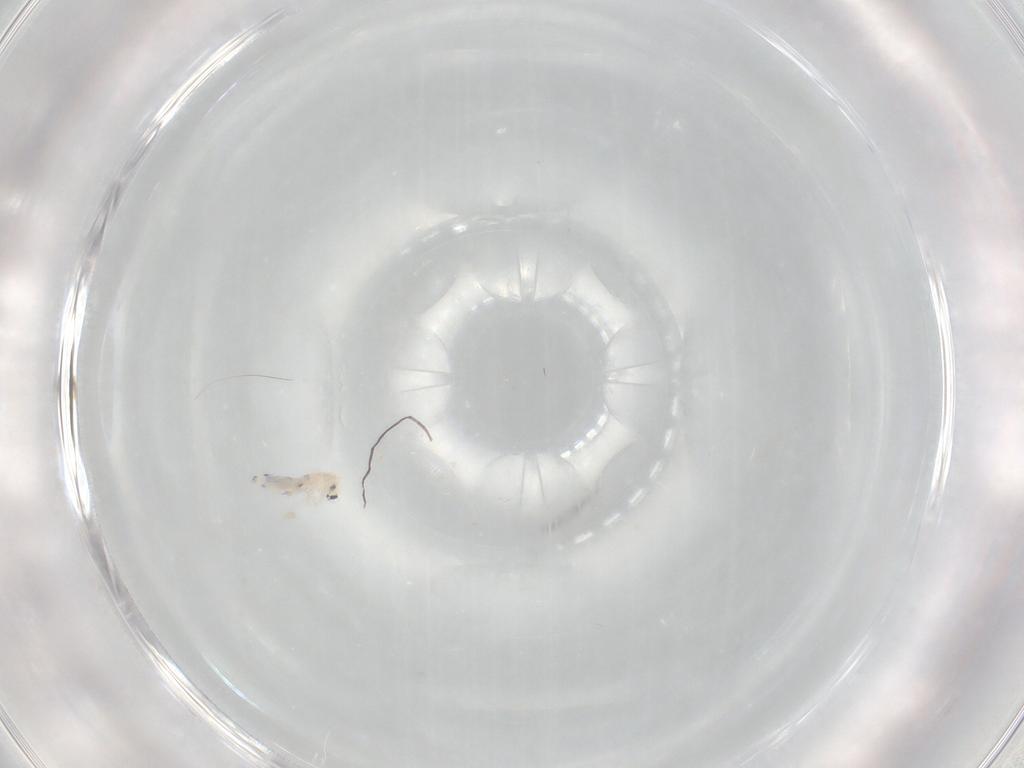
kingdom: Animalia
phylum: Arthropoda
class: Collembola
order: Entomobryomorpha
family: Entomobryidae
